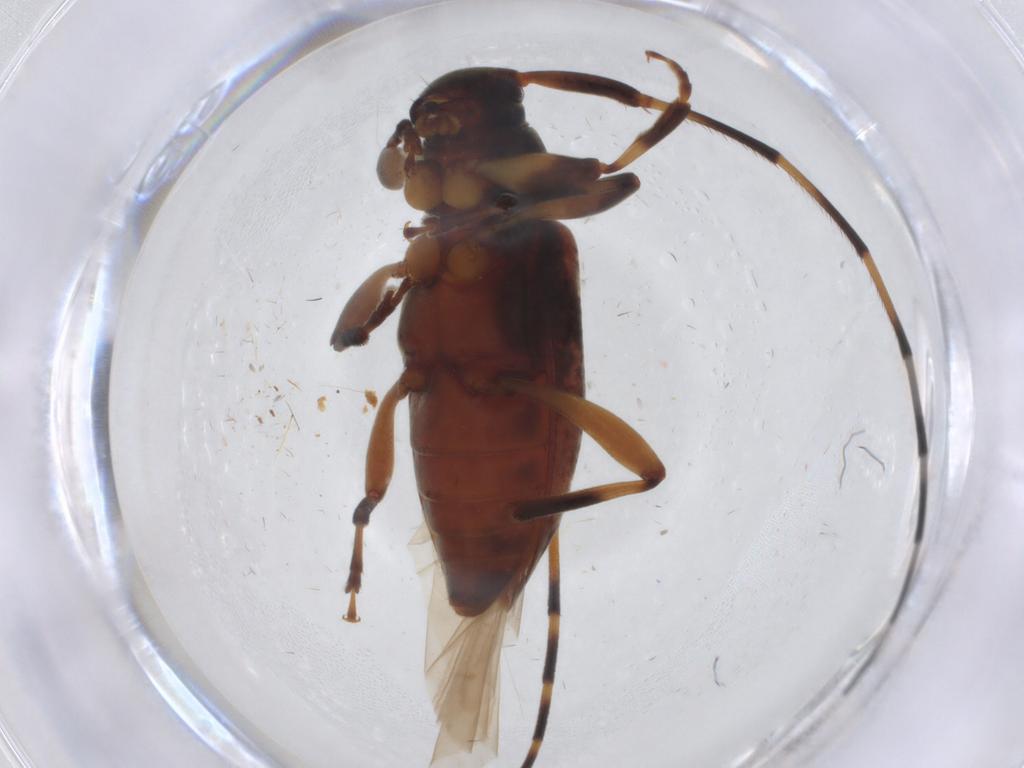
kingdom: Animalia
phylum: Arthropoda
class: Insecta
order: Coleoptera
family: Cerambycidae
